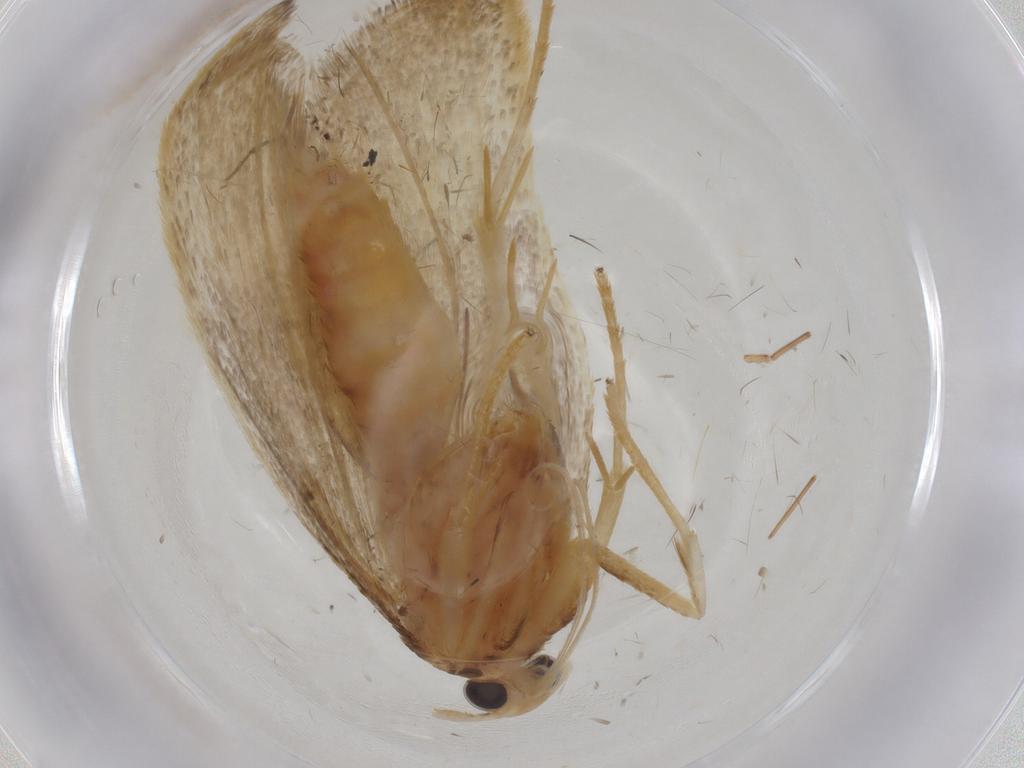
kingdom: Animalia
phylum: Arthropoda
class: Insecta
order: Lepidoptera
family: Lecithoceridae
